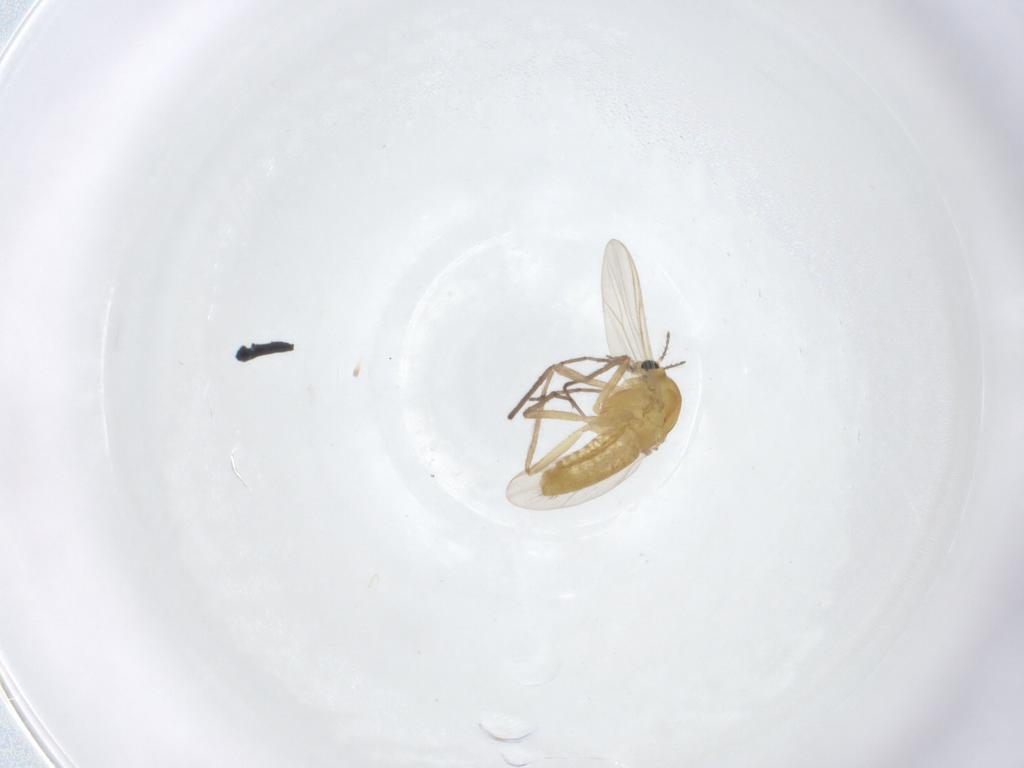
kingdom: Animalia
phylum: Arthropoda
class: Insecta
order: Diptera
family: Chironomidae
